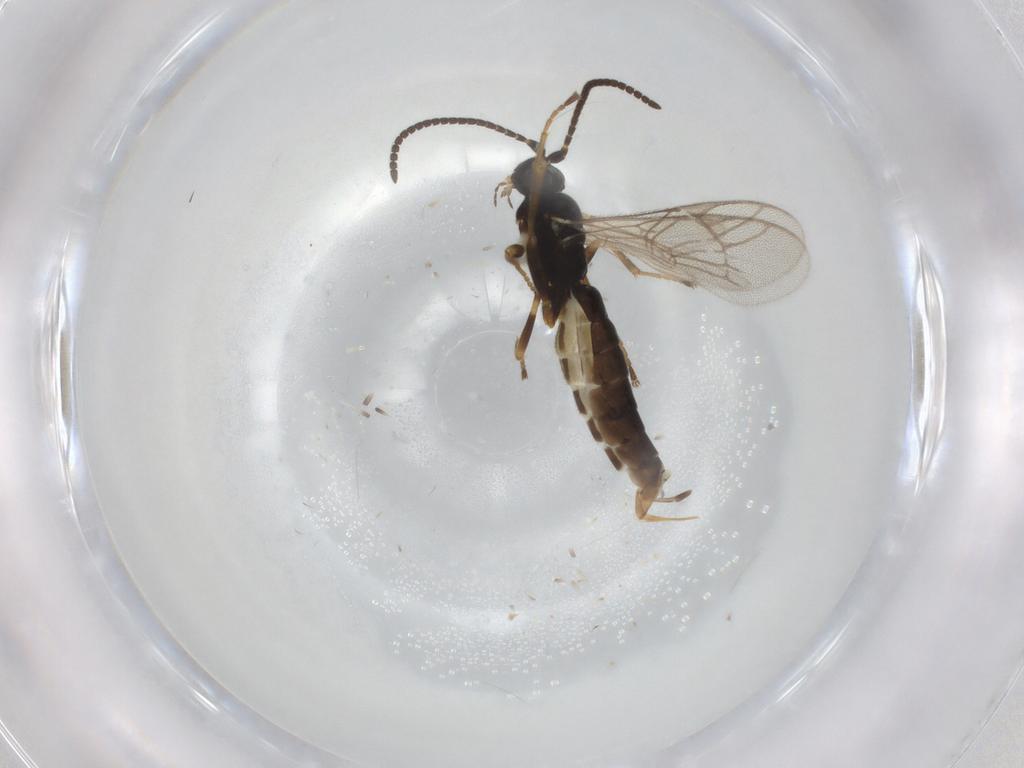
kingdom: Animalia
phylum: Arthropoda
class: Insecta
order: Hymenoptera
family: Ichneumonidae
